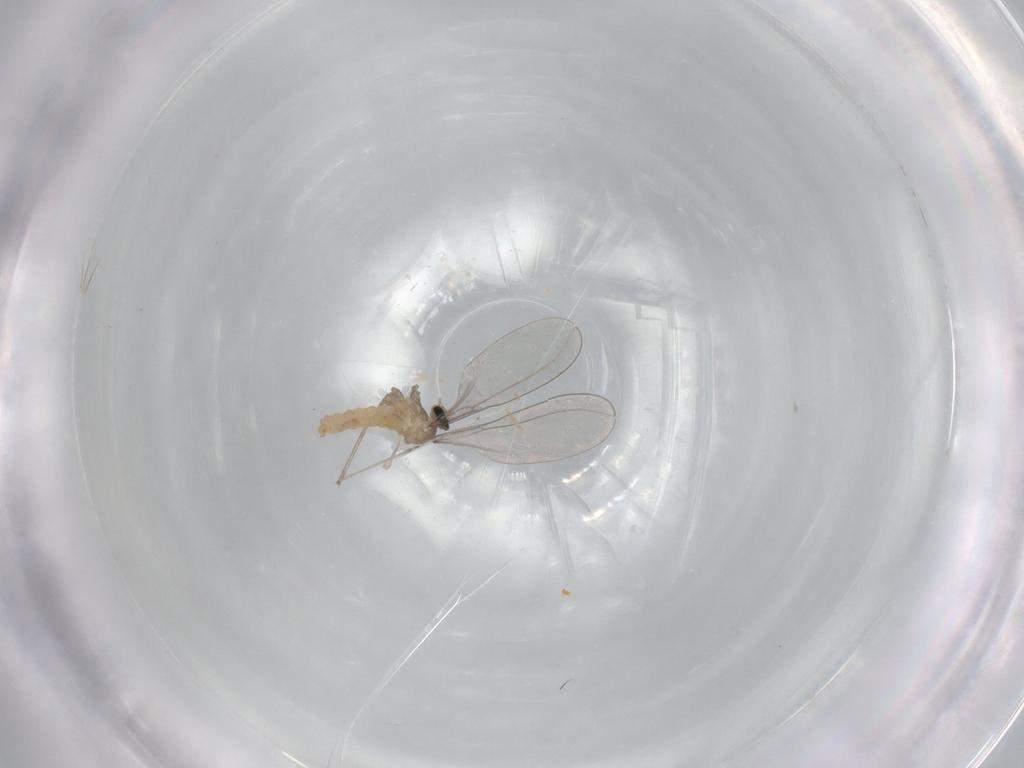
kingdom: Animalia
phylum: Arthropoda
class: Insecta
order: Diptera
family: Cecidomyiidae
